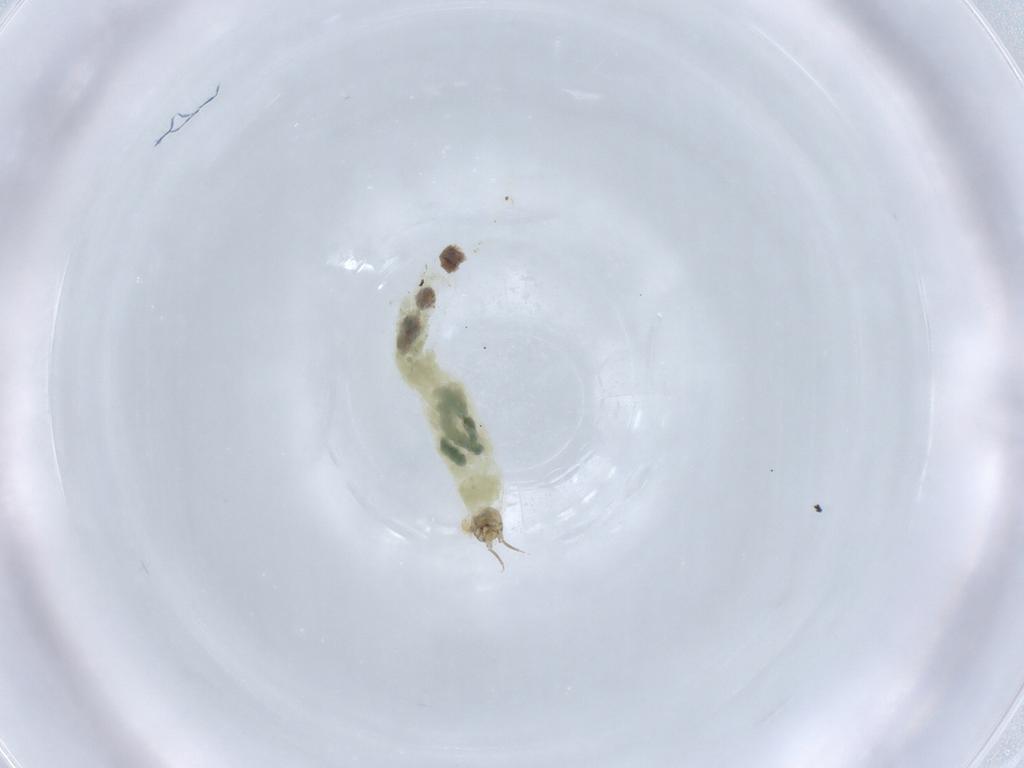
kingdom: Animalia
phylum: Arthropoda
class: Insecta
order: Diptera
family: Chironomidae
